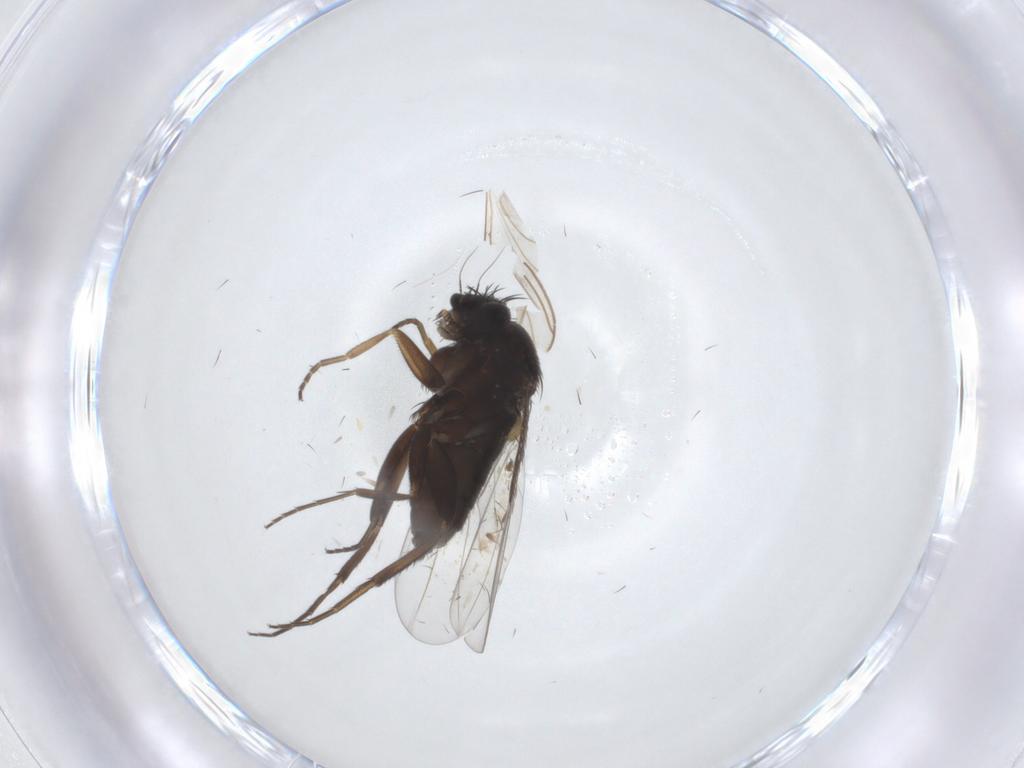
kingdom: Animalia
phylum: Arthropoda
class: Insecta
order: Diptera
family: Phoridae
